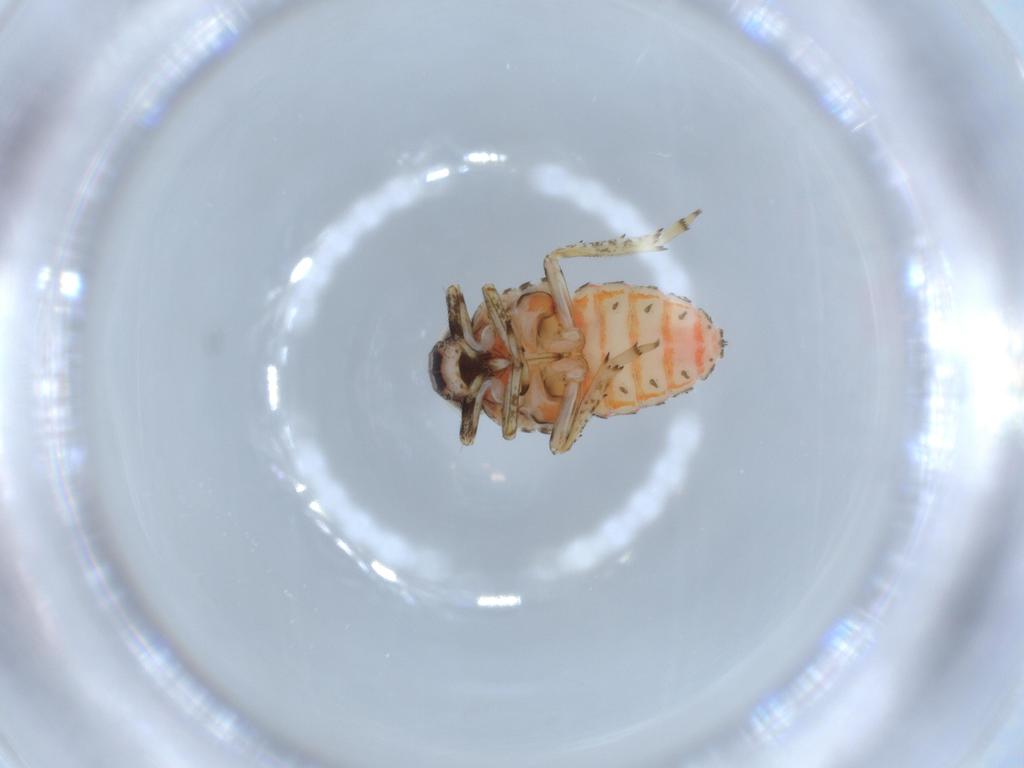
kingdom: Animalia
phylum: Arthropoda
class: Insecta
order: Hemiptera
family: Issidae
